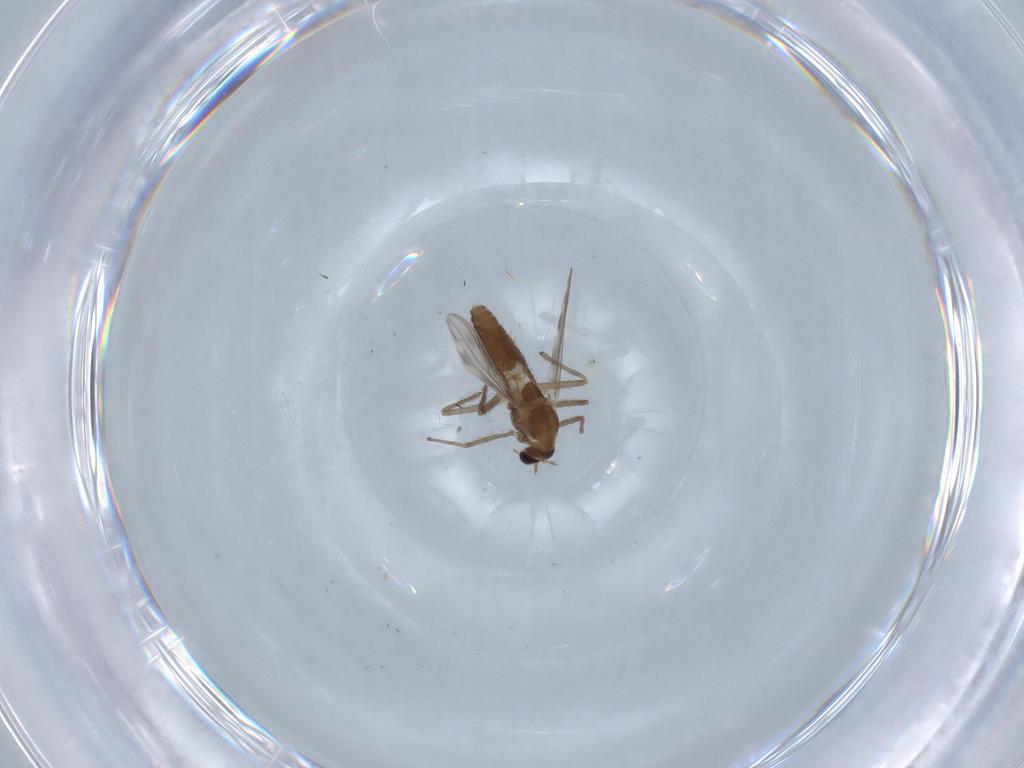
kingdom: Animalia
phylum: Arthropoda
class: Insecta
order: Diptera
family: Chironomidae
